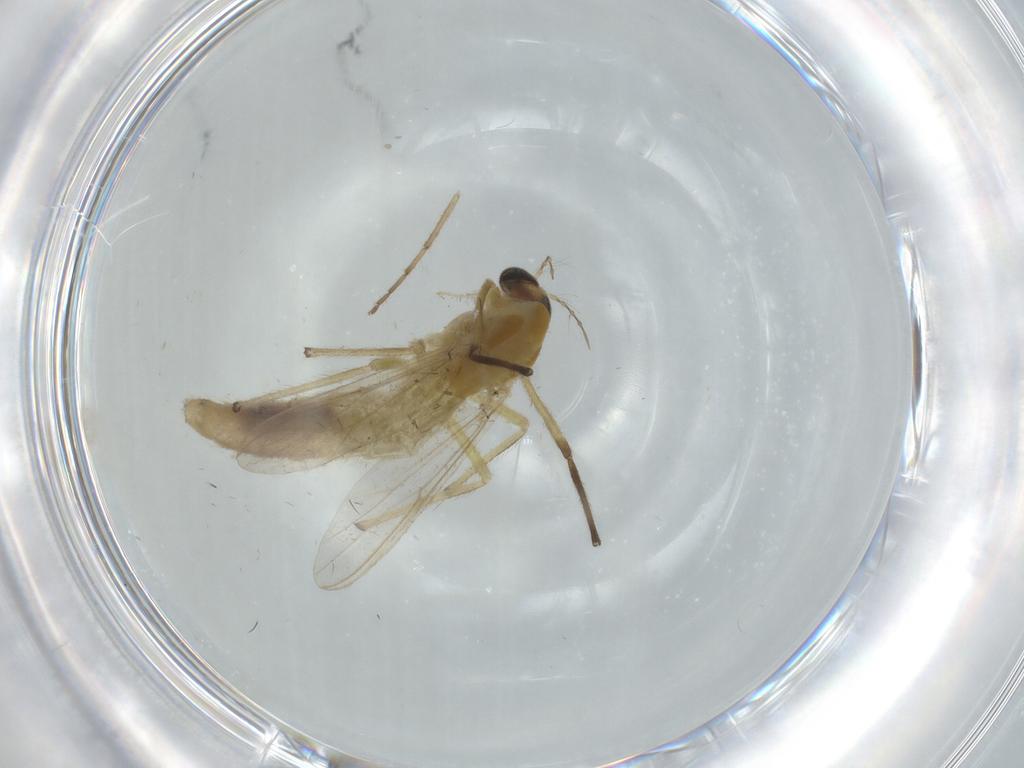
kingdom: Animalia
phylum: Arthropoda
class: Insecta
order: Diptera
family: Chironomidae
